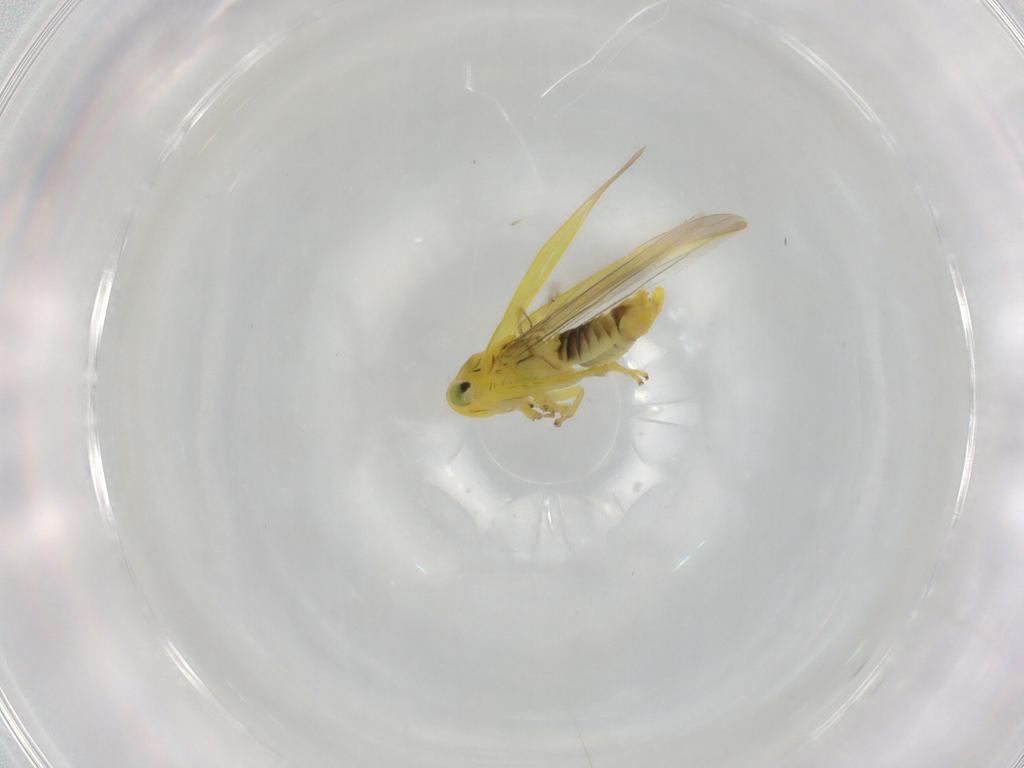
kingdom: Animalia
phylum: Arthropoda
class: Insecta
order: Hemiptera
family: Cicadellidae
